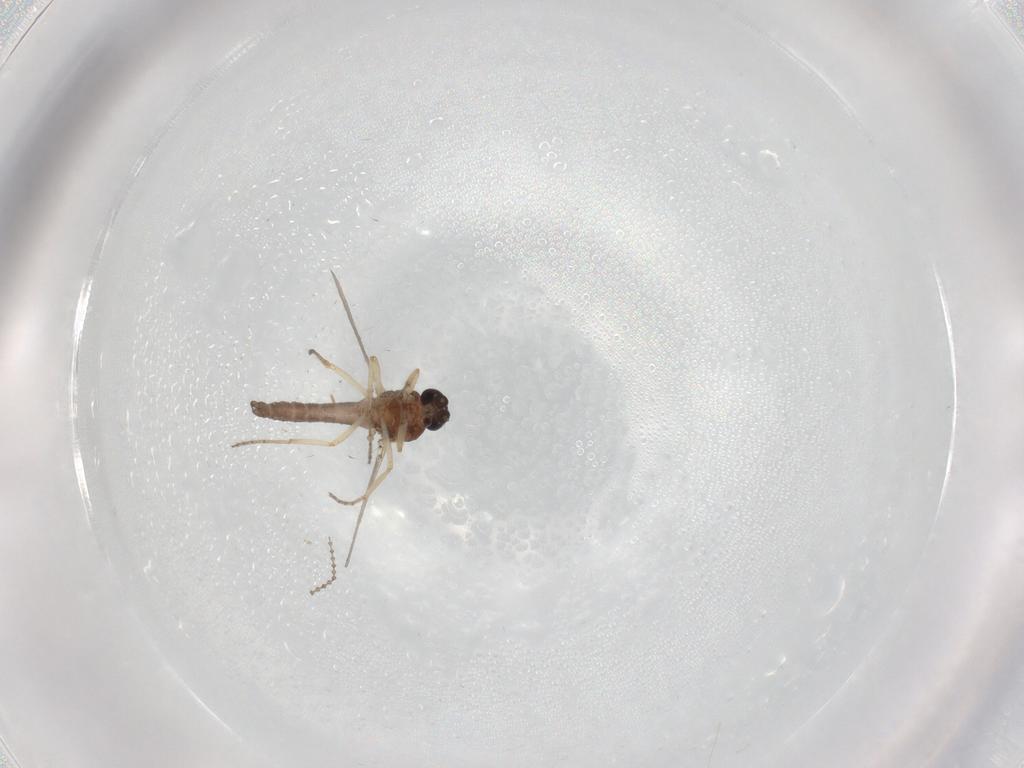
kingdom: Animalia
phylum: Arthropoda
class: Insecta
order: Diptera
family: Ceratopogonidae
